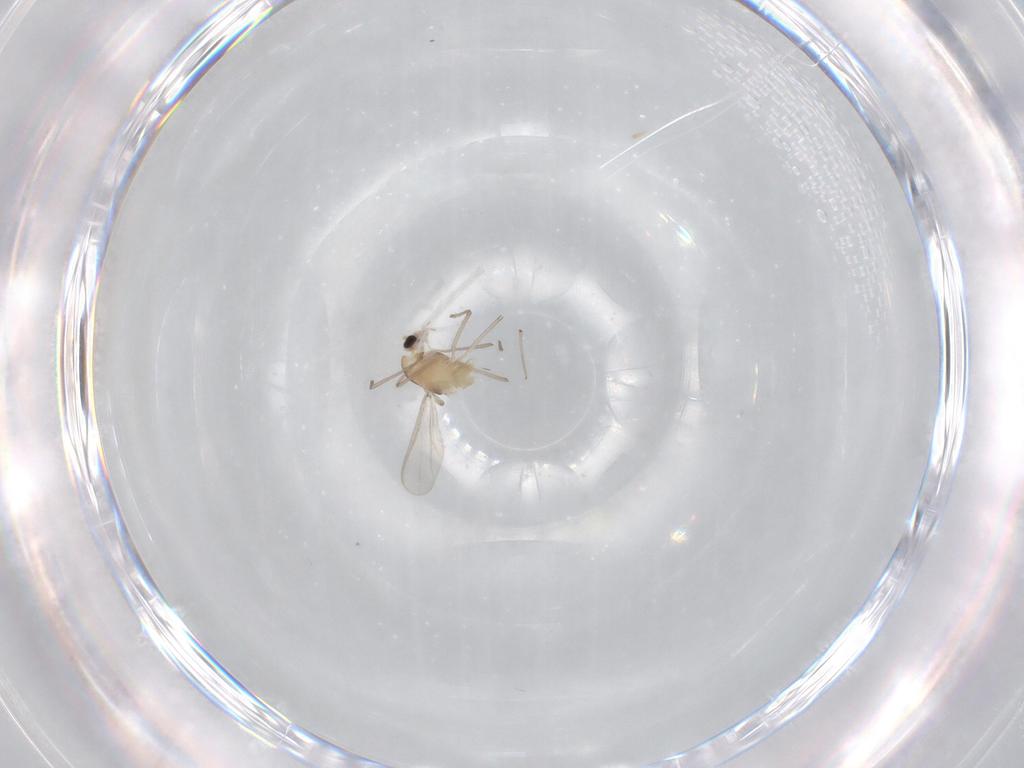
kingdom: Animalia
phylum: Arthropoda
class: Insecta
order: Diptera
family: Chironomidae
